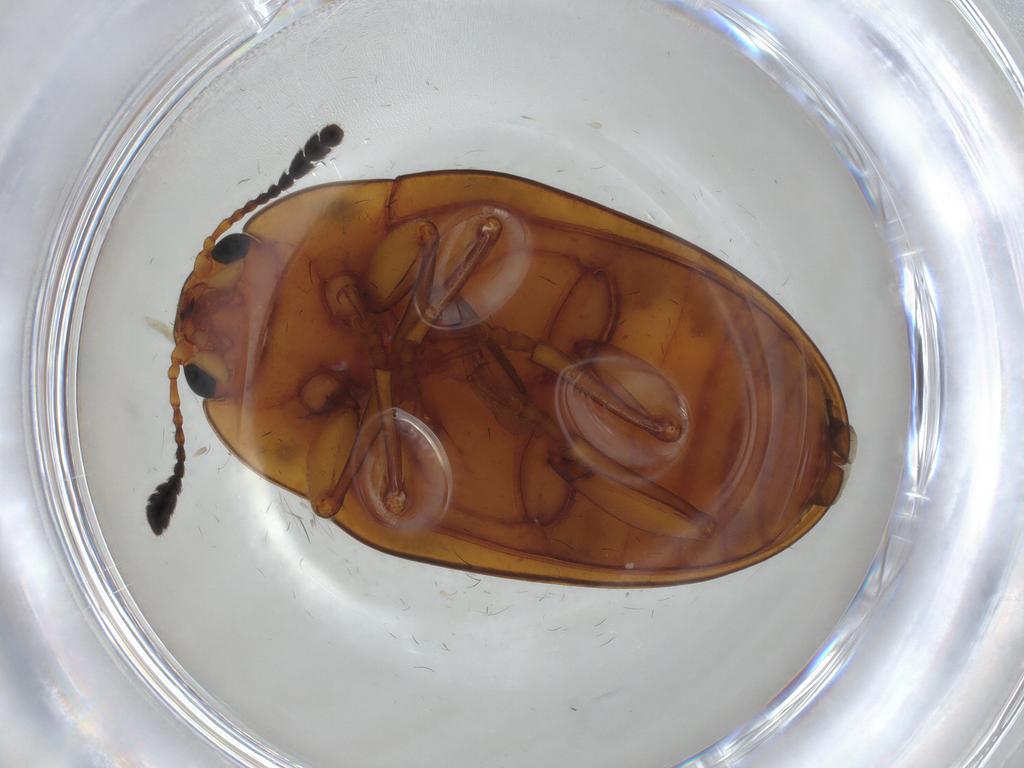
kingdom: Animalia
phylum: Arthropoda
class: Insecta
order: Coleoptera
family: Erotylidae
